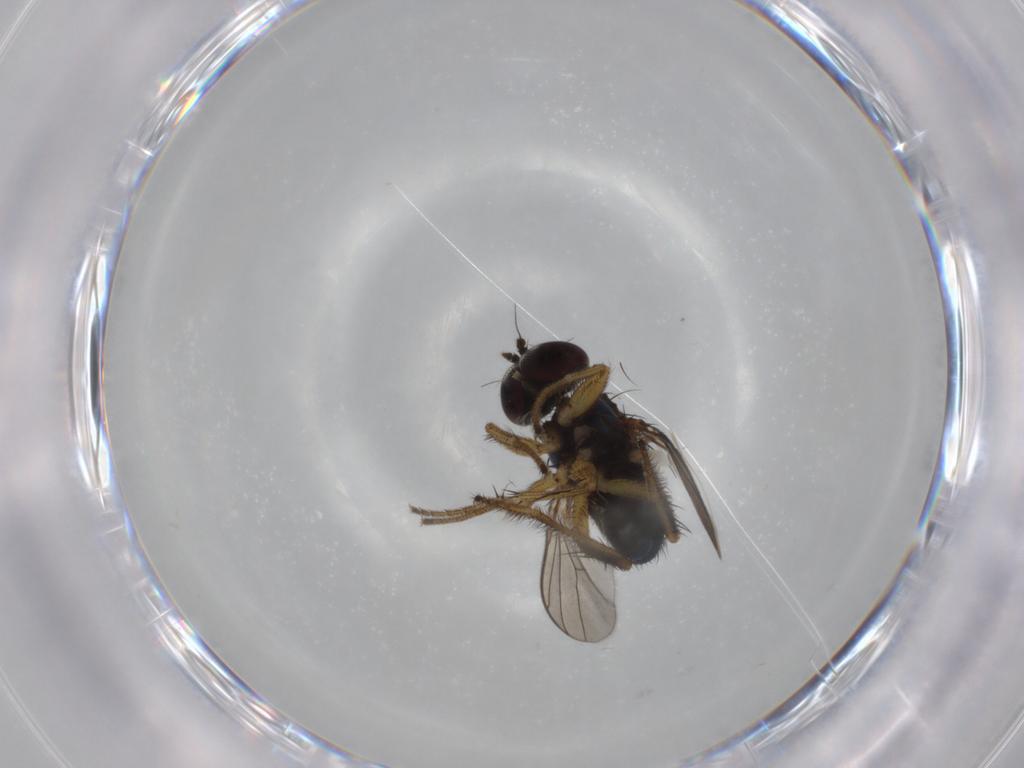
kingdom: Animalia
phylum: Arthropoda
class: Insecta
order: Diptera
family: Dolichopodidae
